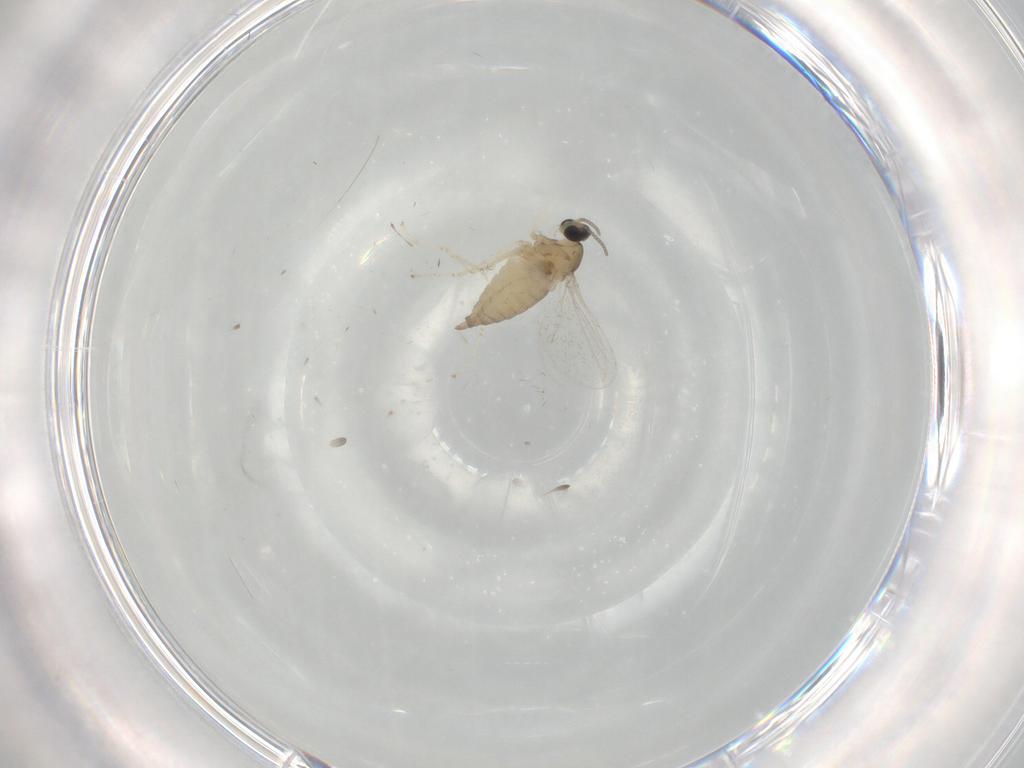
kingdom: Animalia
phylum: Arthropoda
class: Insecta
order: Diptera
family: Cecidomyiidae
